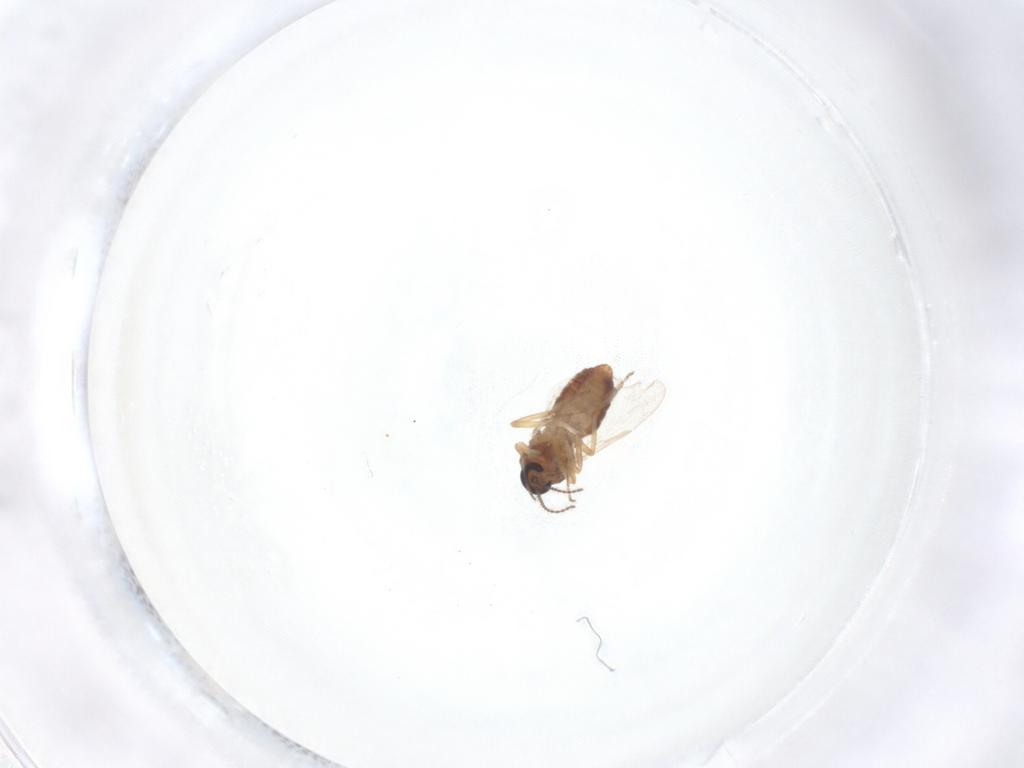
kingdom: Animalia
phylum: Arthropoda
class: Insecta
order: Diptera
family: Ceratopogonidae
